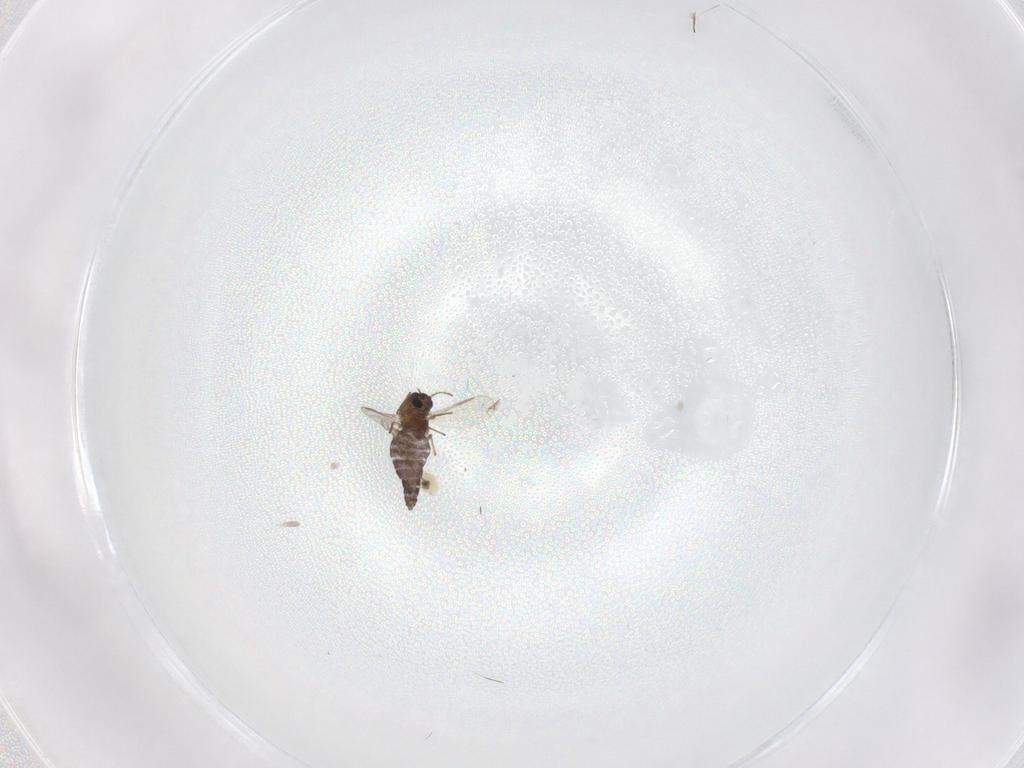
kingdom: Animalia
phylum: Arthropoda
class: Insecta
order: Diptera
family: Chironomidae
